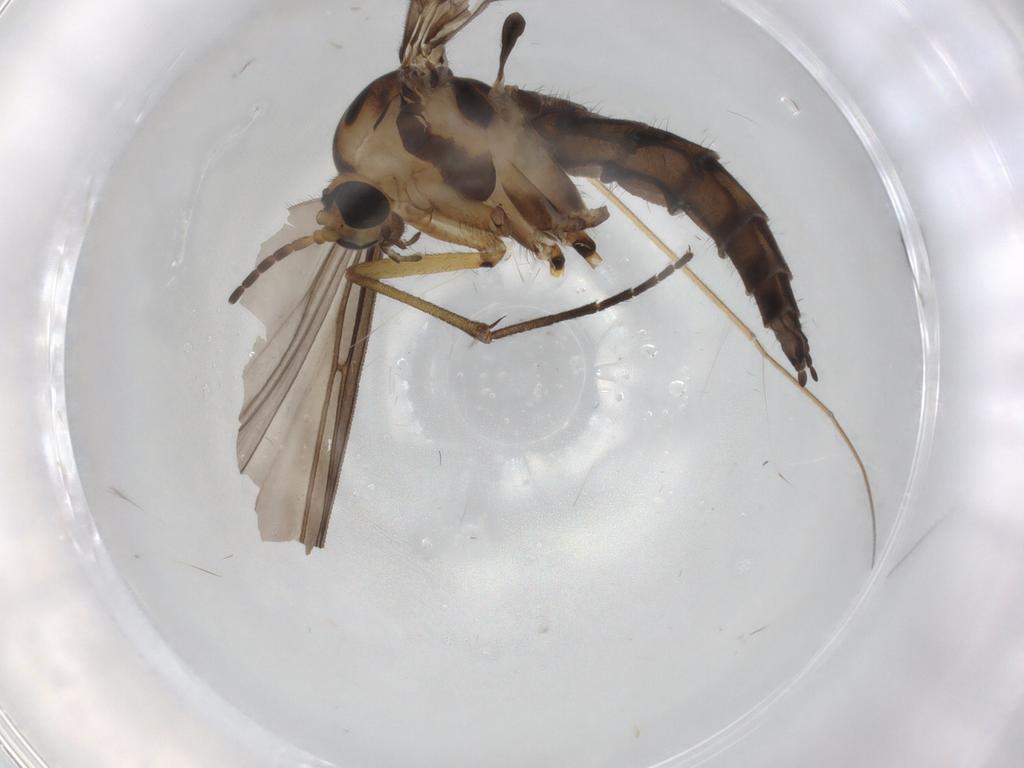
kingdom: Animalia
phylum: Arthropoda
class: Insecta
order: Diptera
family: Sciaridae
